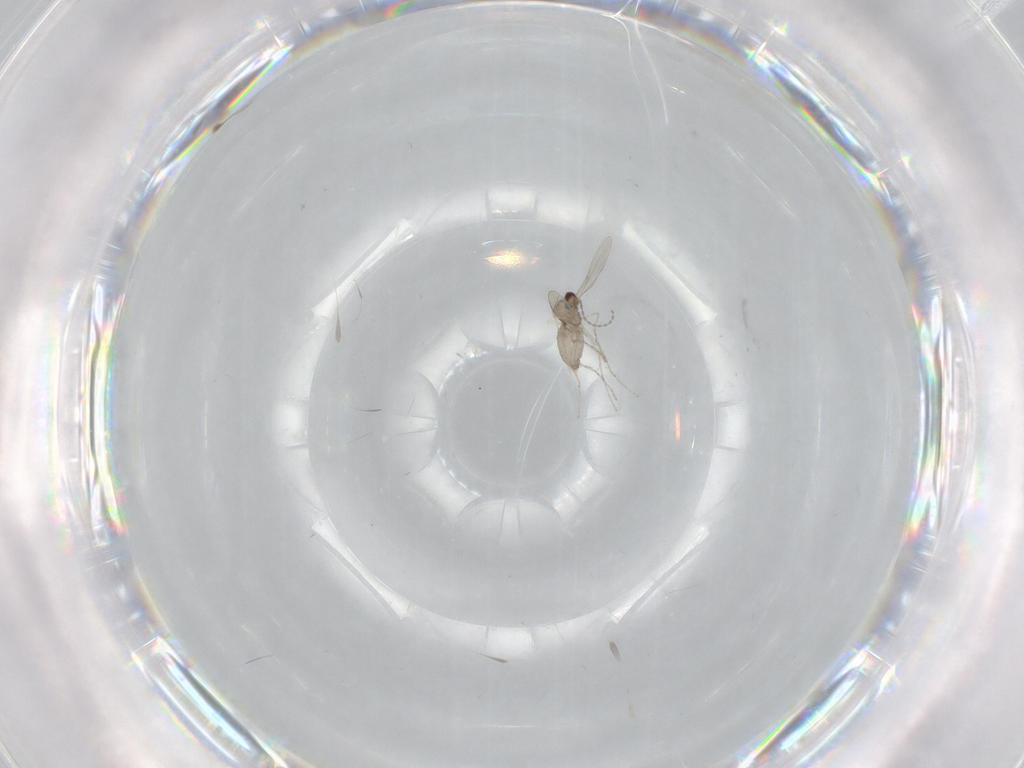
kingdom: Animalia
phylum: Arthropoda
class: Insecta
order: Diptera
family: Cecidomyiidae
